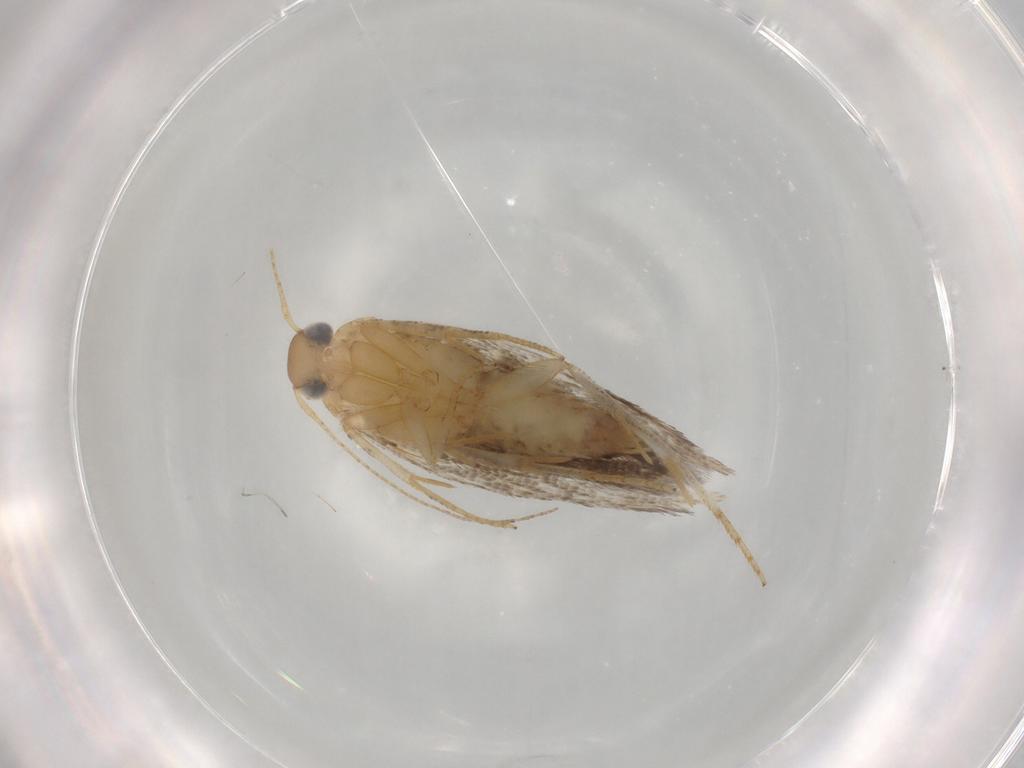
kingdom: Animalia
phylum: Arthropoda
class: Insecta
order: Lepidoptera
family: Gelechiidae
